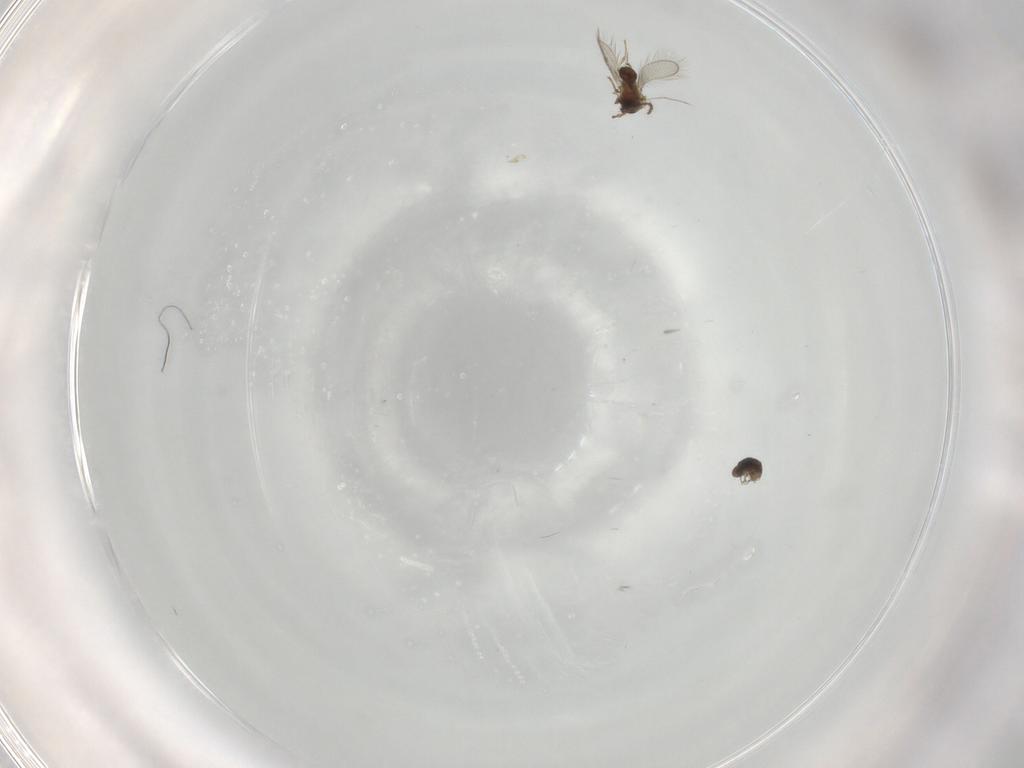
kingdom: Animalia
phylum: Arthropoda
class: Insecta
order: Hymenoptera
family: Diapriidae
